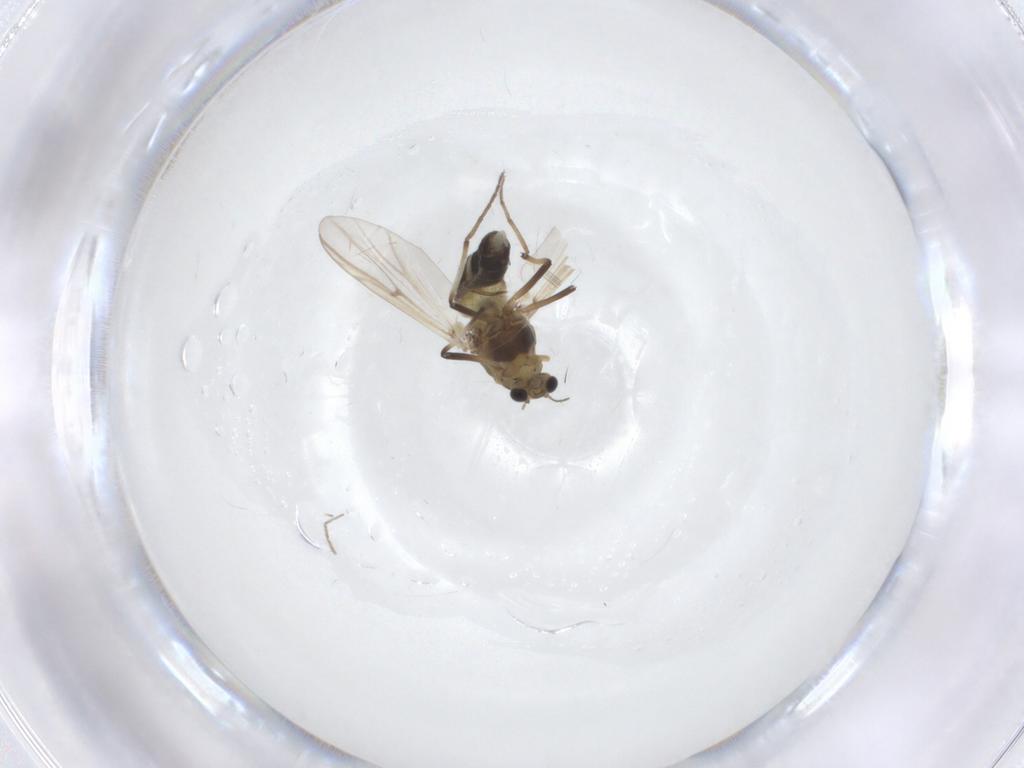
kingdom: Animalia
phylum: Arthropoda
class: Insecta
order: Diptera
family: Chironomidae
